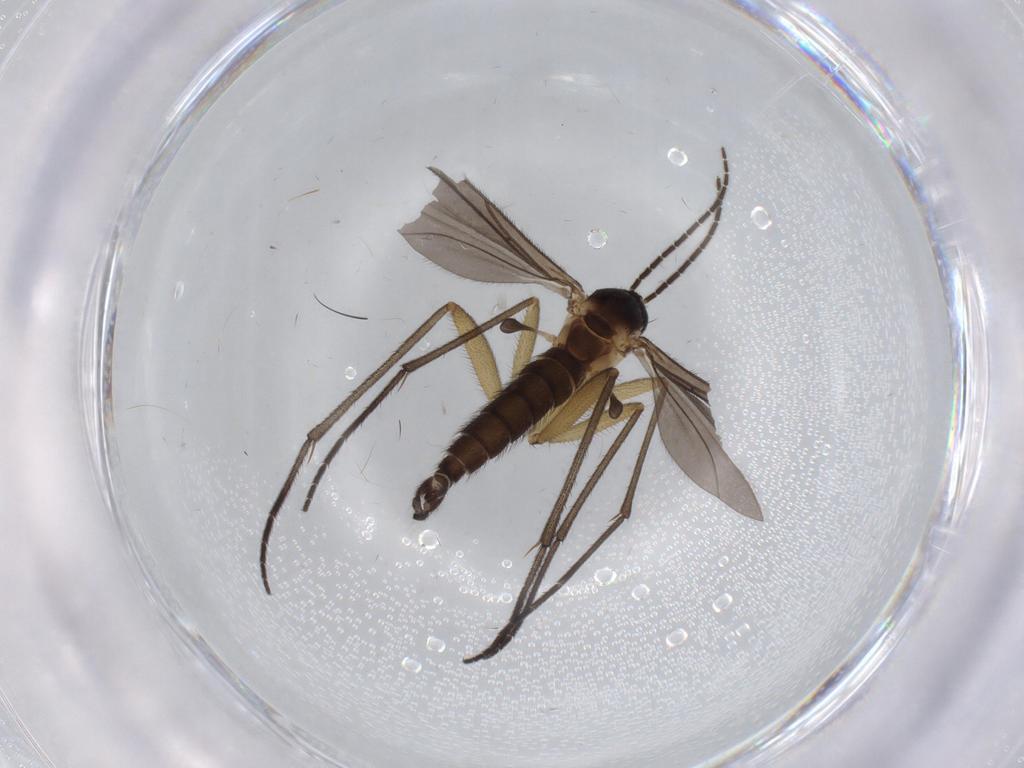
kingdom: Animalia
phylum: Arthropoda
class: Insecta
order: Diptera
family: Sciaridae
